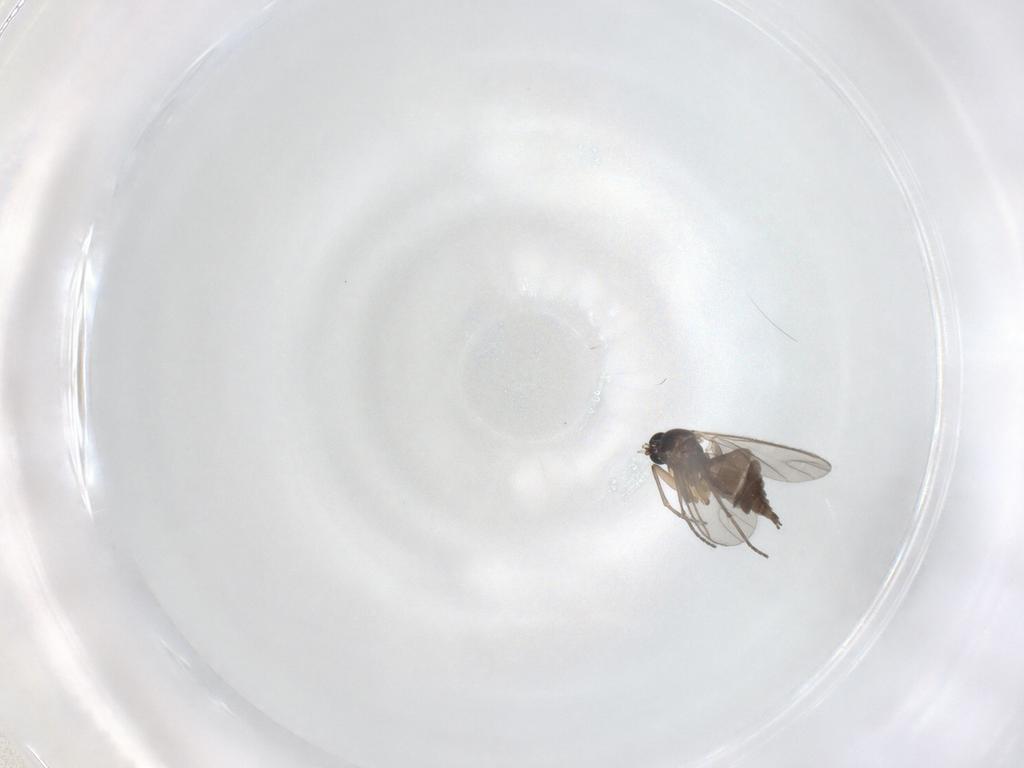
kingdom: Animalia
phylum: Arthropoda
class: Insecta
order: Diptera
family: Sciaridae
